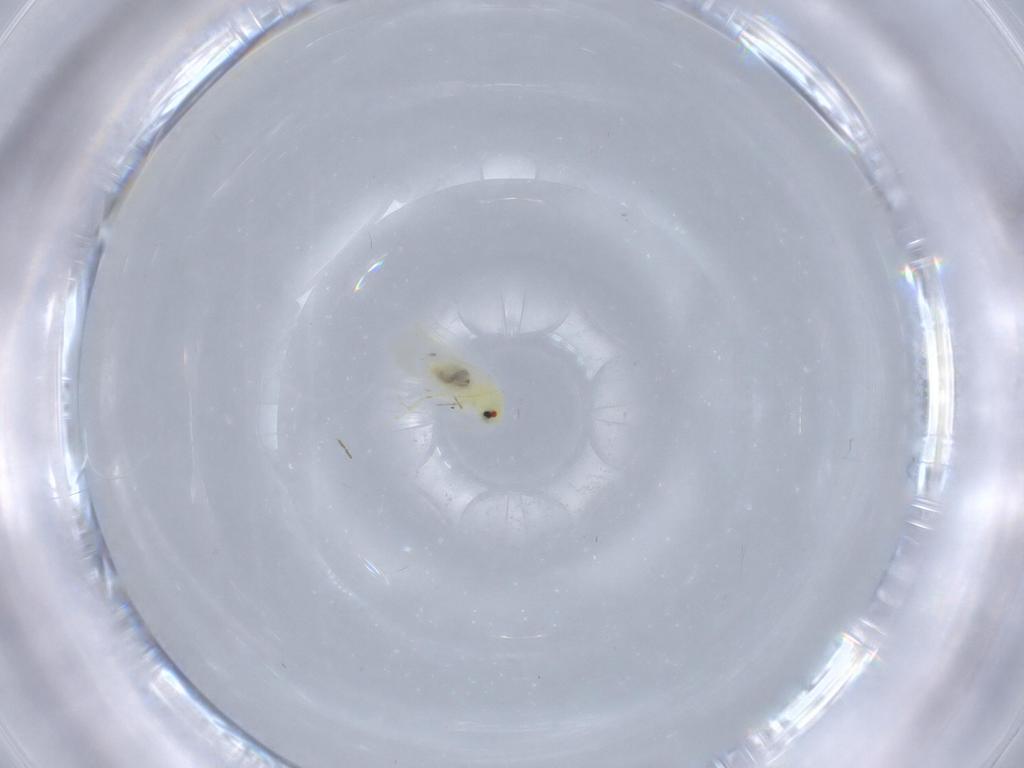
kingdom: Animalia
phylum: Arthropoda
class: Insecta
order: Hemiptera
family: Aleyrodidae
